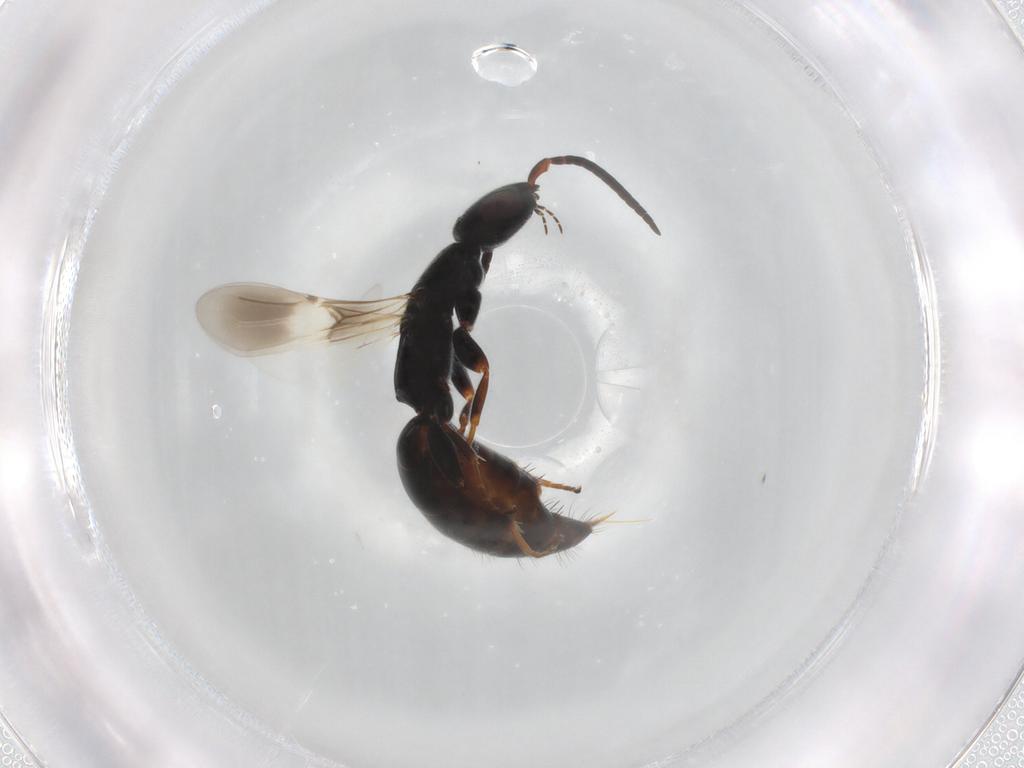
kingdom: Animalia
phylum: Arthropoda
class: Insecta
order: Hymenoptera
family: Bethylidae
